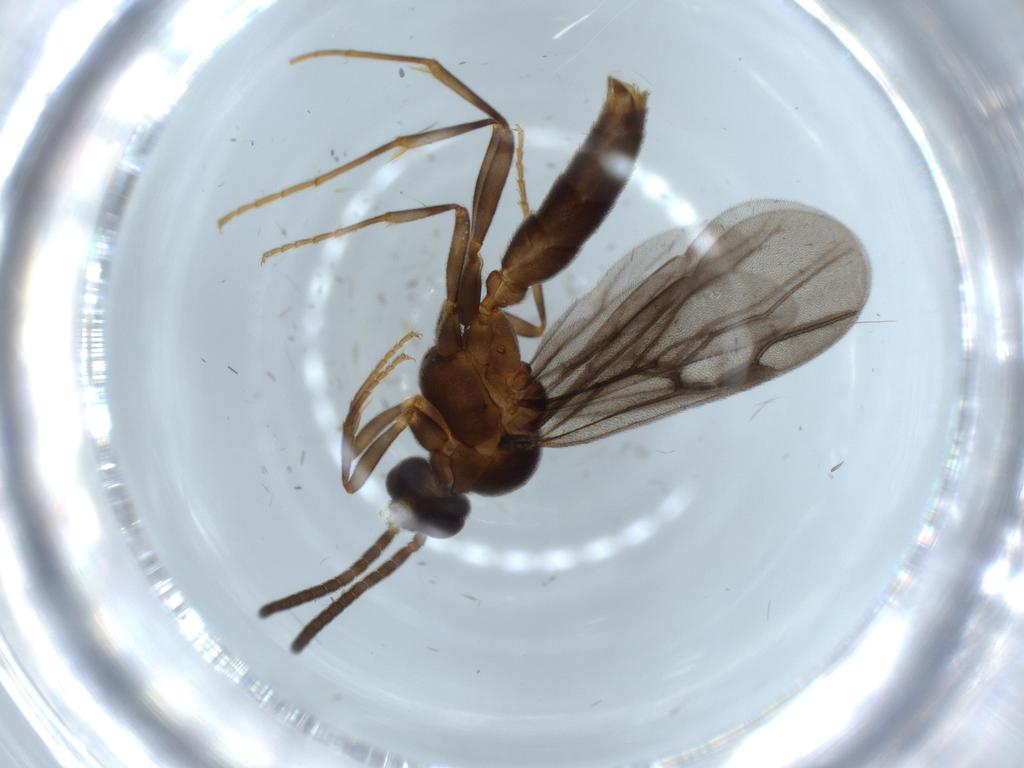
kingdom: Animalia
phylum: Arthropoda
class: Insecta
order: Hymenoptera
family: Formicidae
